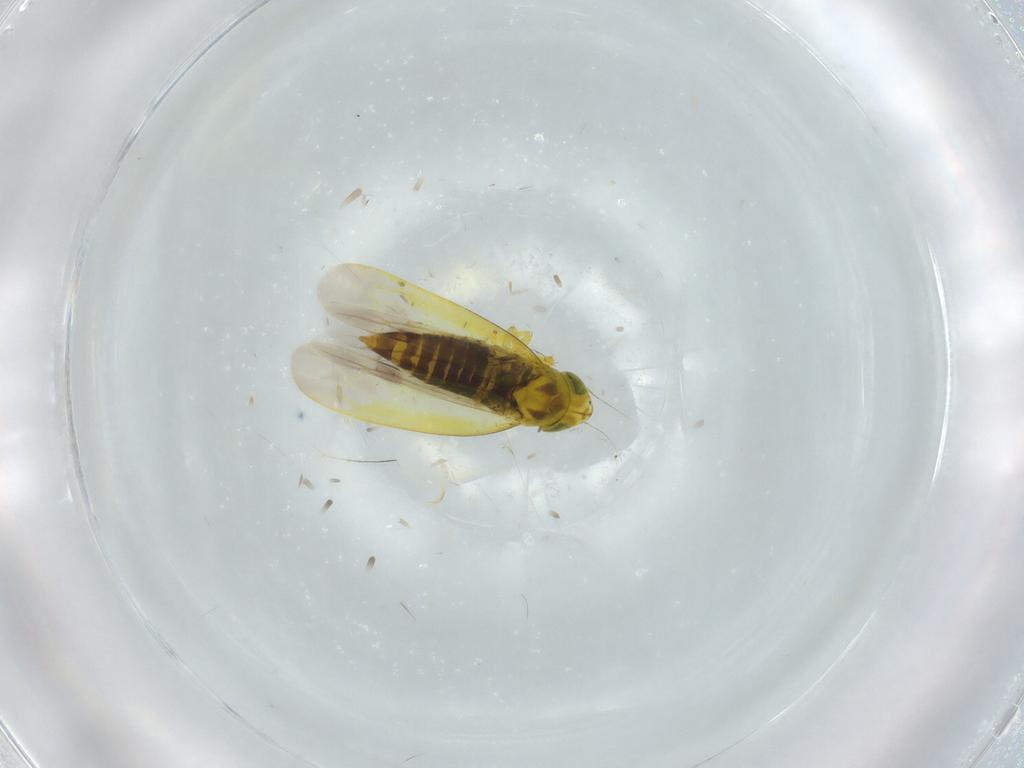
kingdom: Animalia
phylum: Arthropoda
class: Insecta
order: Hemiptera
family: Cicadellidae
